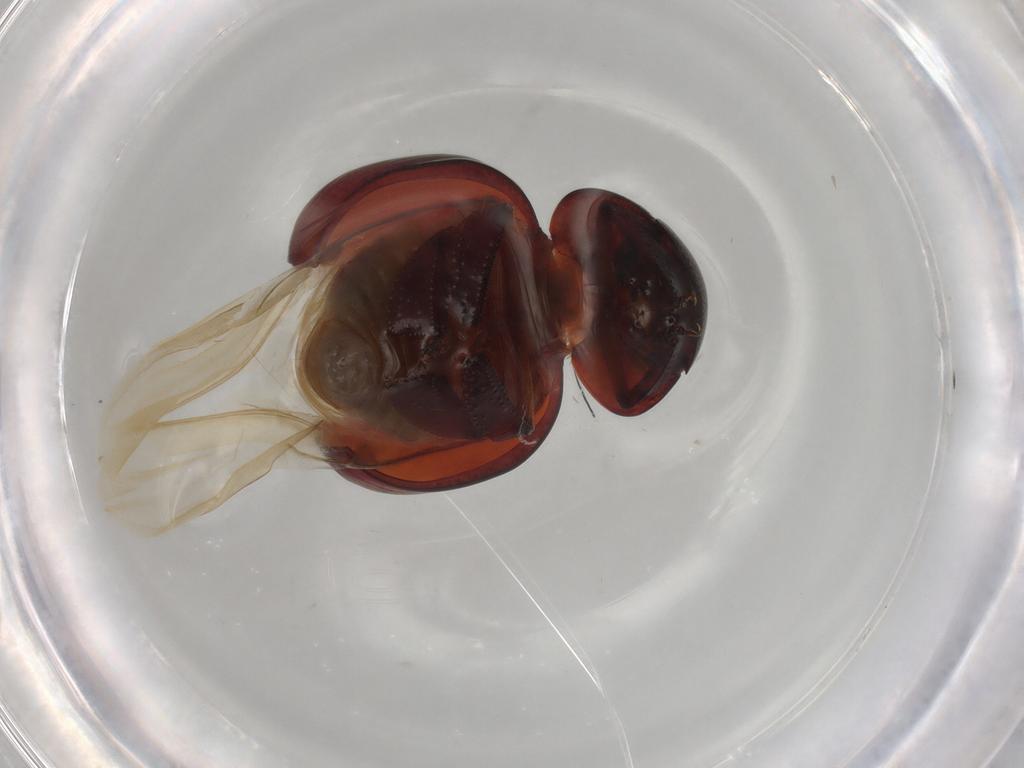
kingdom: Animalia
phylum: Arthropoda
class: Insecta
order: Coleoptera
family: Hybosoridae
